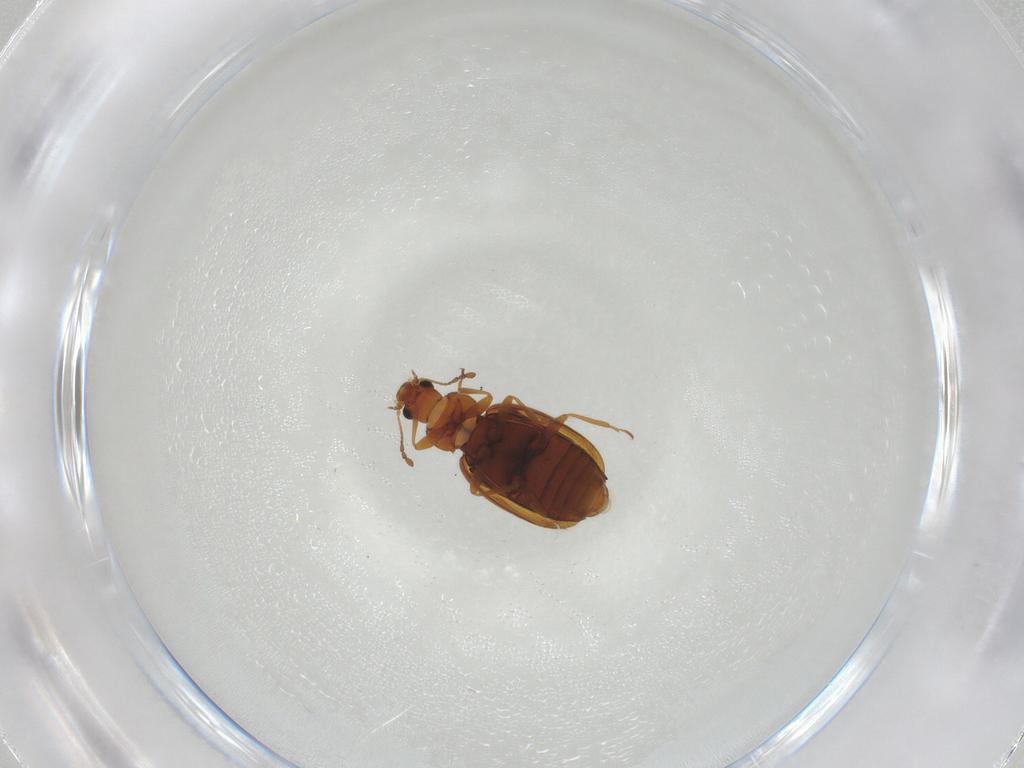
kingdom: Animalia
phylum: Arthropoda
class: Insecta
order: Coleoptera
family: Latridiidae
